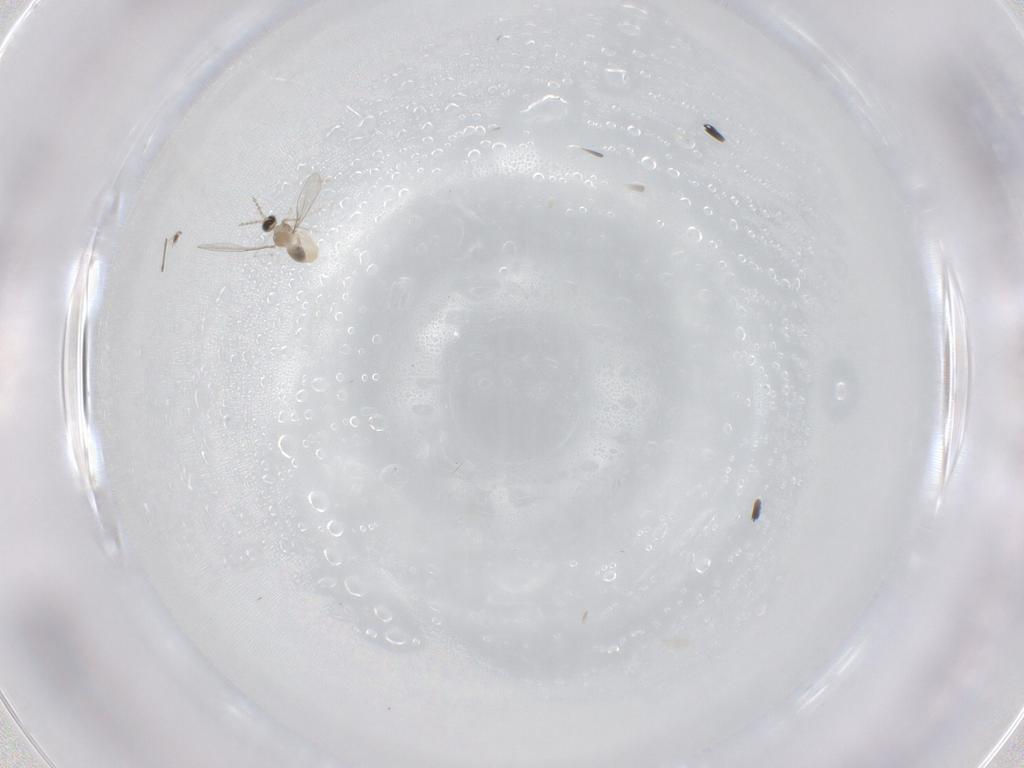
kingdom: Animalia
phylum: Arthropoda
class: Insecta
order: Diptera
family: Cecidomyiidae
